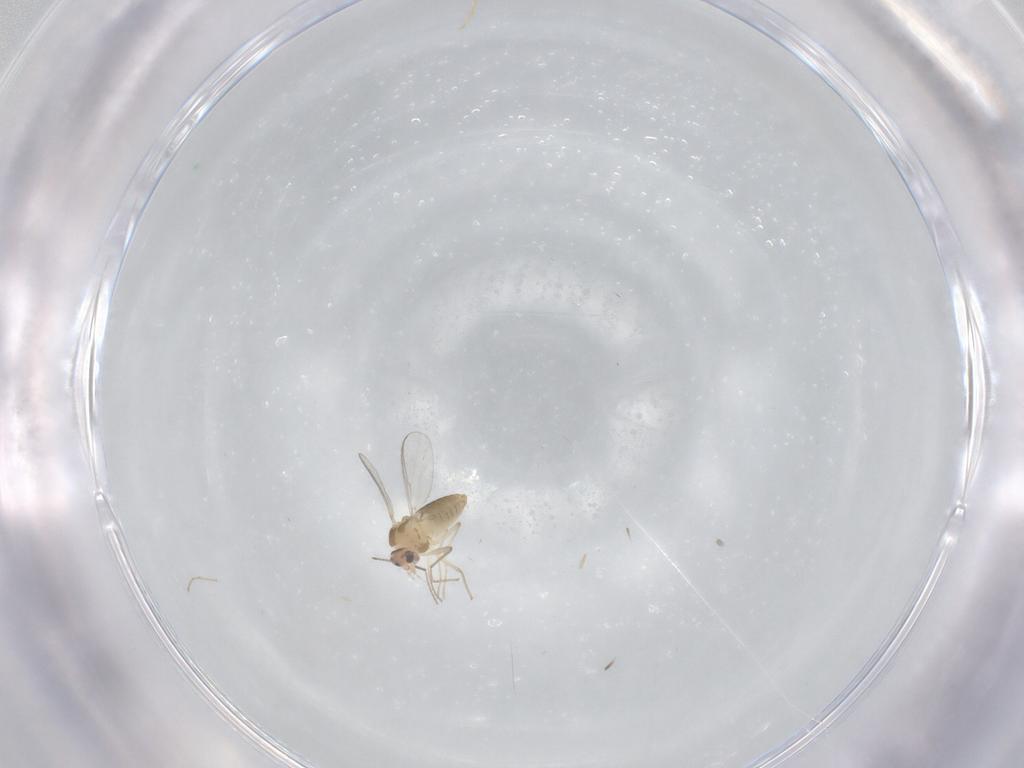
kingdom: Animalia
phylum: Arthropoda
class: Insecta
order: Diptera
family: Chironomidae
